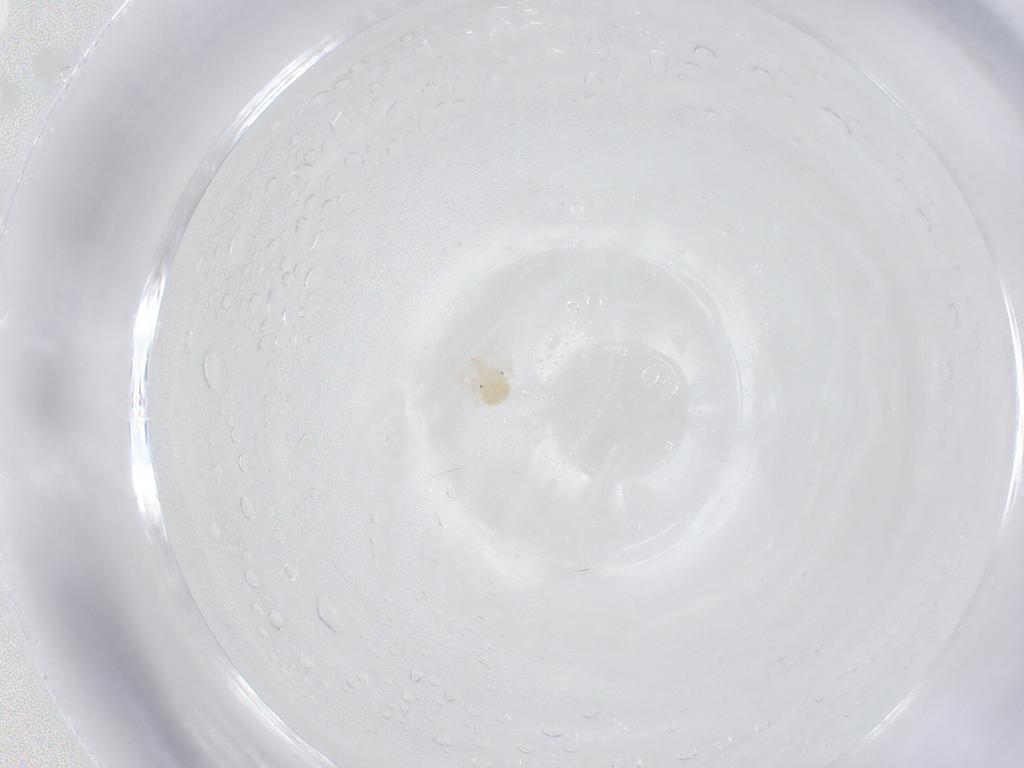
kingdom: Animalia
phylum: Arthropoda
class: Arachnida
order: Trombidiformes
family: Anystidae
